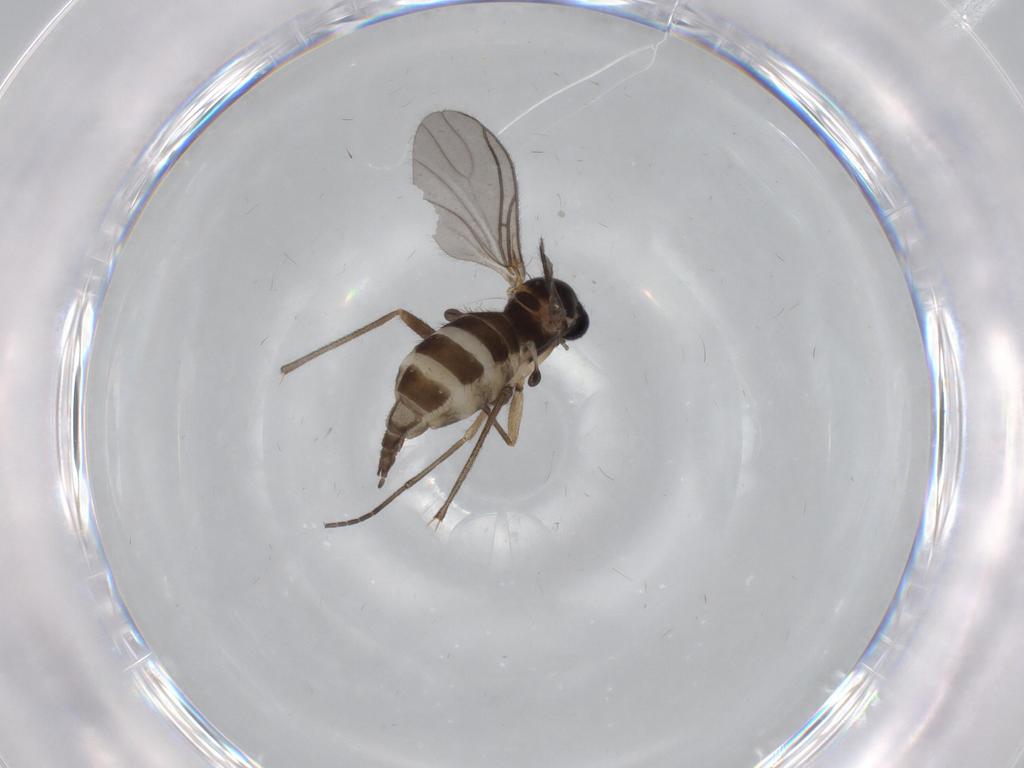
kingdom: Animalia
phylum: Arthropoda
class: Insecta
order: Diptera
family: Sciaridae
